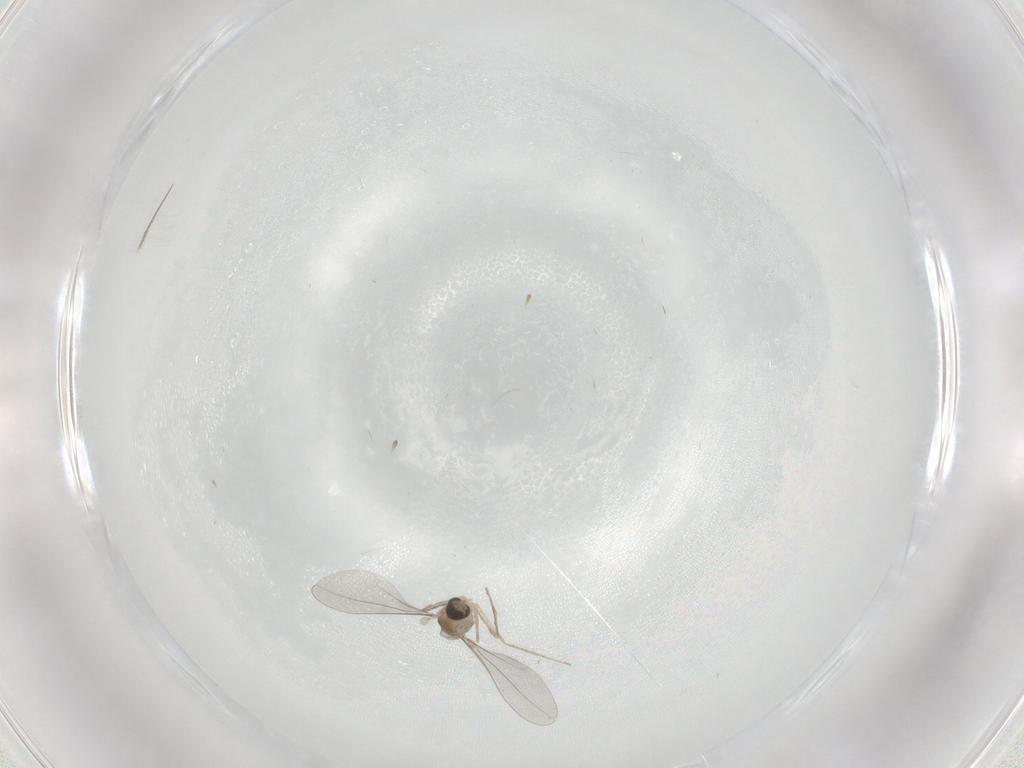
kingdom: Animalia
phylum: Arthropoda
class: Insecta
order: Diptera
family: Cecidomyiidae
